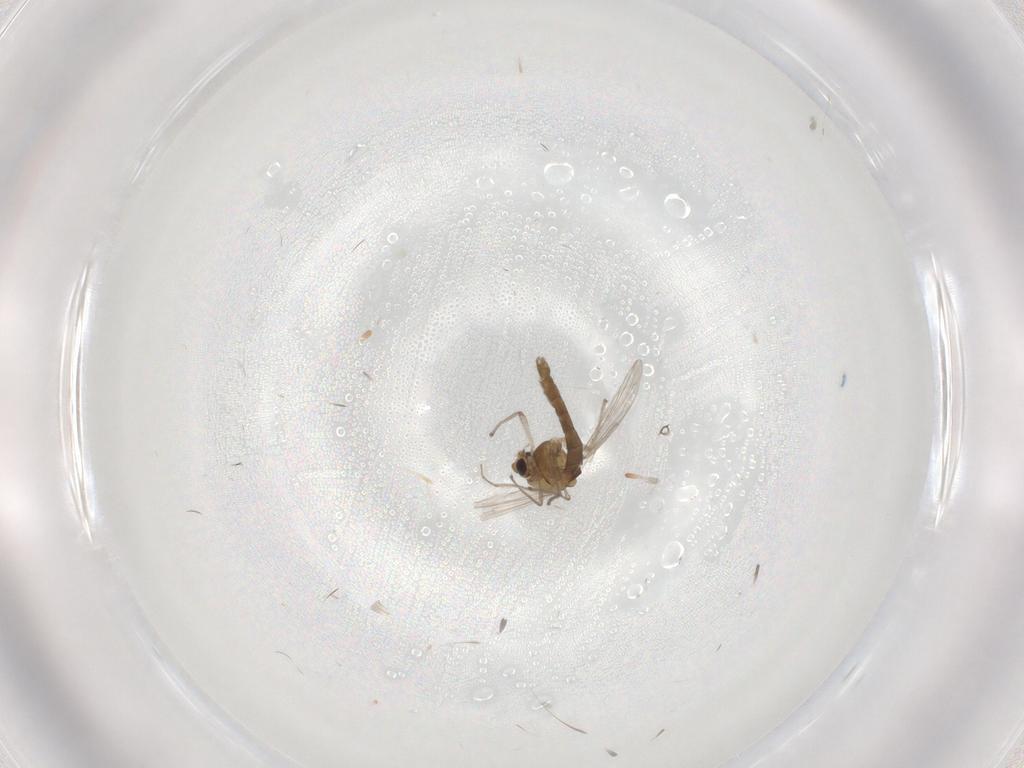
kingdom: Animalia
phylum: Arthropoda
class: Insecta
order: Diptera
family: Chironomidae
